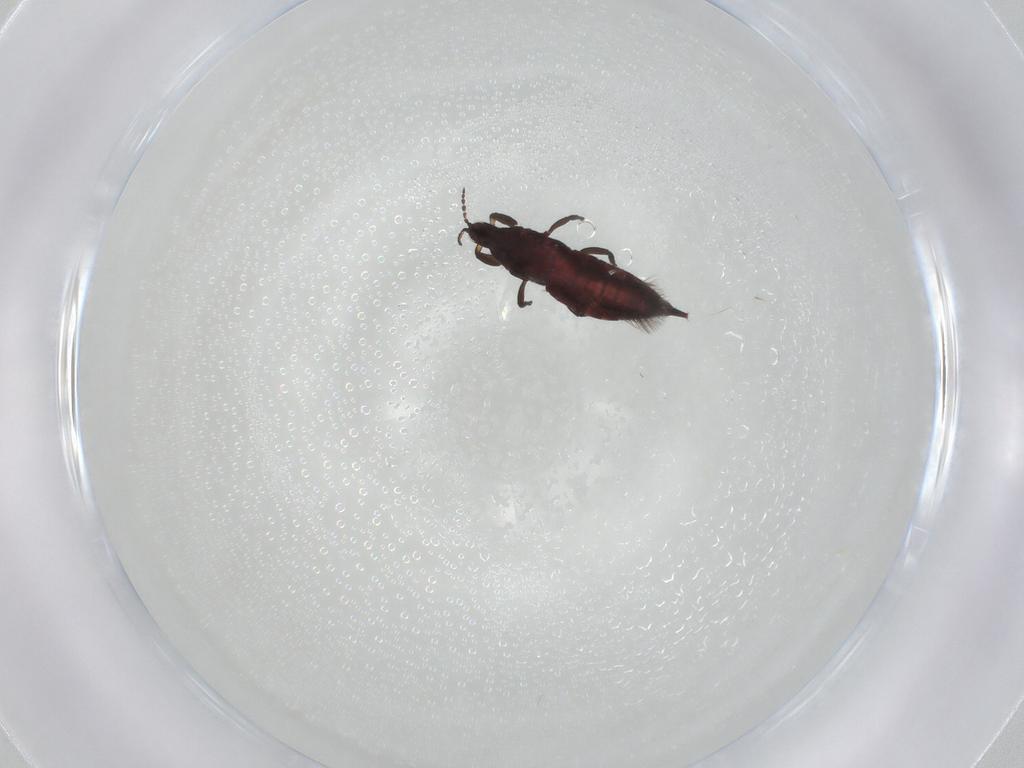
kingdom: Animalia
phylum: Arthropoda
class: Insecta
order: Thysanoptera
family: Phlaeothripidae
